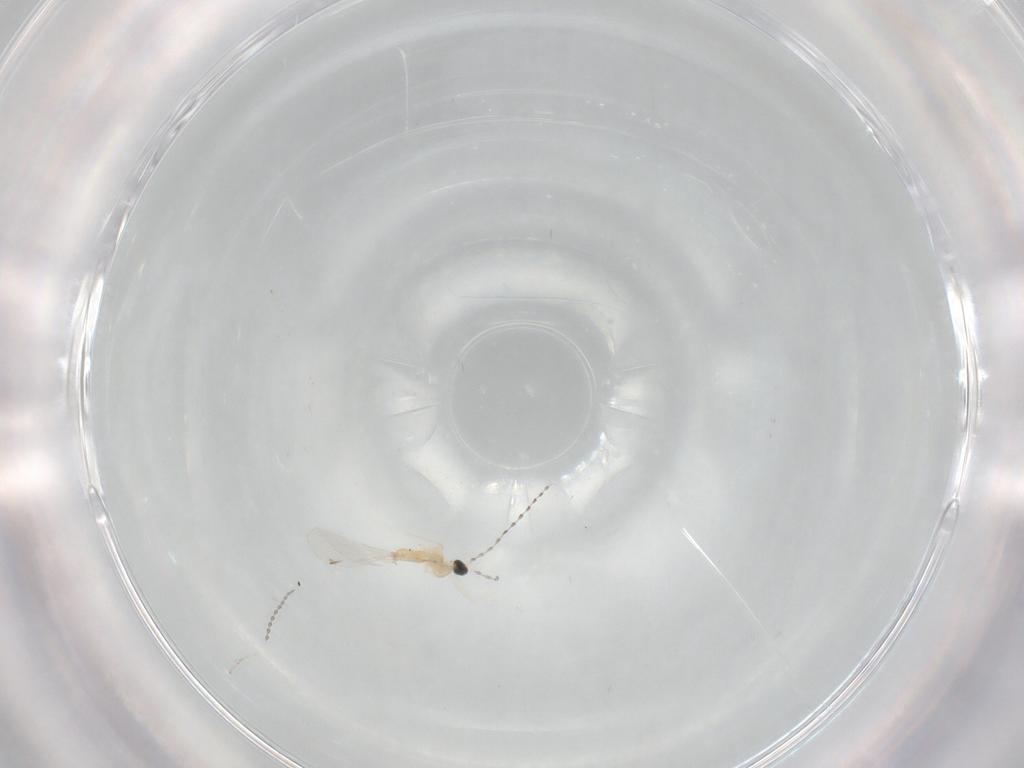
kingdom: Animalia
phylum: Arthropoda
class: Insecta
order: Diptera
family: Cecidomyiidae
